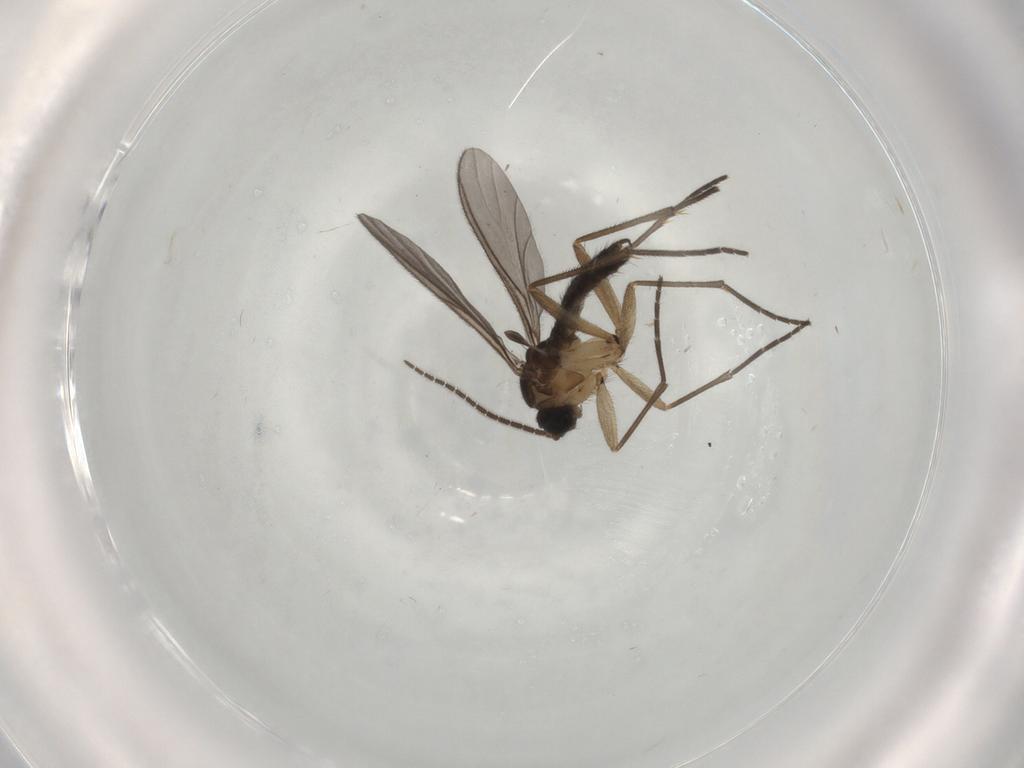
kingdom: Animalia
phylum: Arthropoda
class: Insecta
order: Diptera
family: Sciaridae
